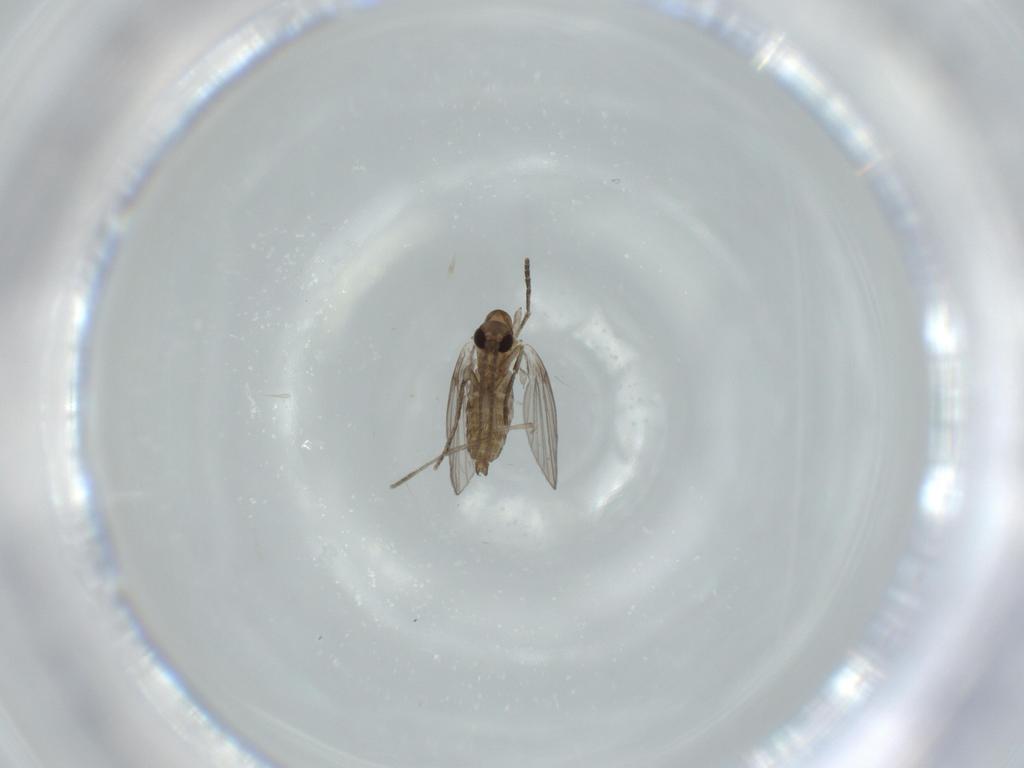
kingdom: Animalia
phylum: Arthropoda
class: Insecta
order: Diptera
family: Psychodidae
